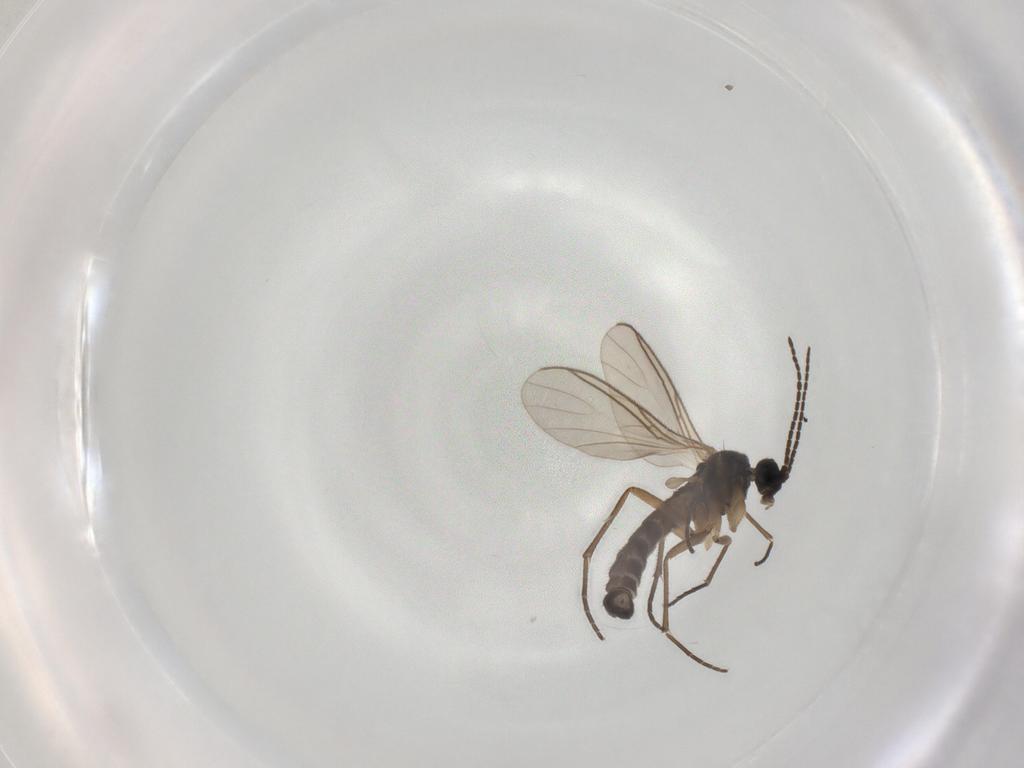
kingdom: Animalia
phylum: Arthropoda
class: Insecta
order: Diptera
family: Sciaridae
